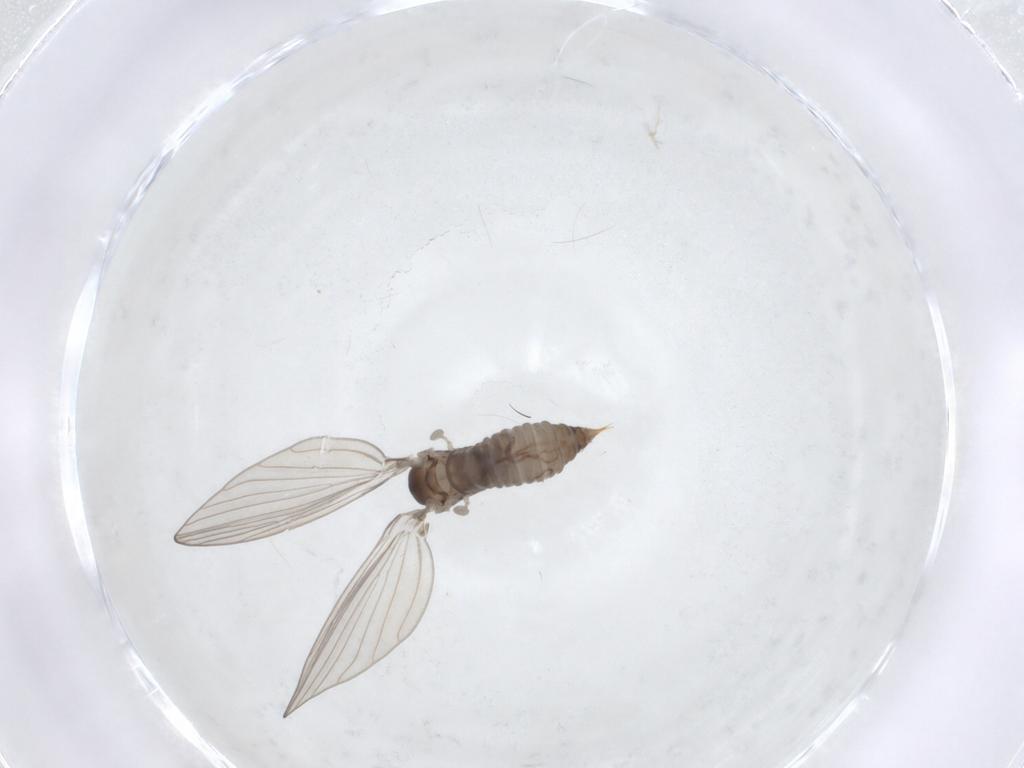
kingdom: Animalia
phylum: Arthropoda
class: Insecta
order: Diptera
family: Psychodidae
